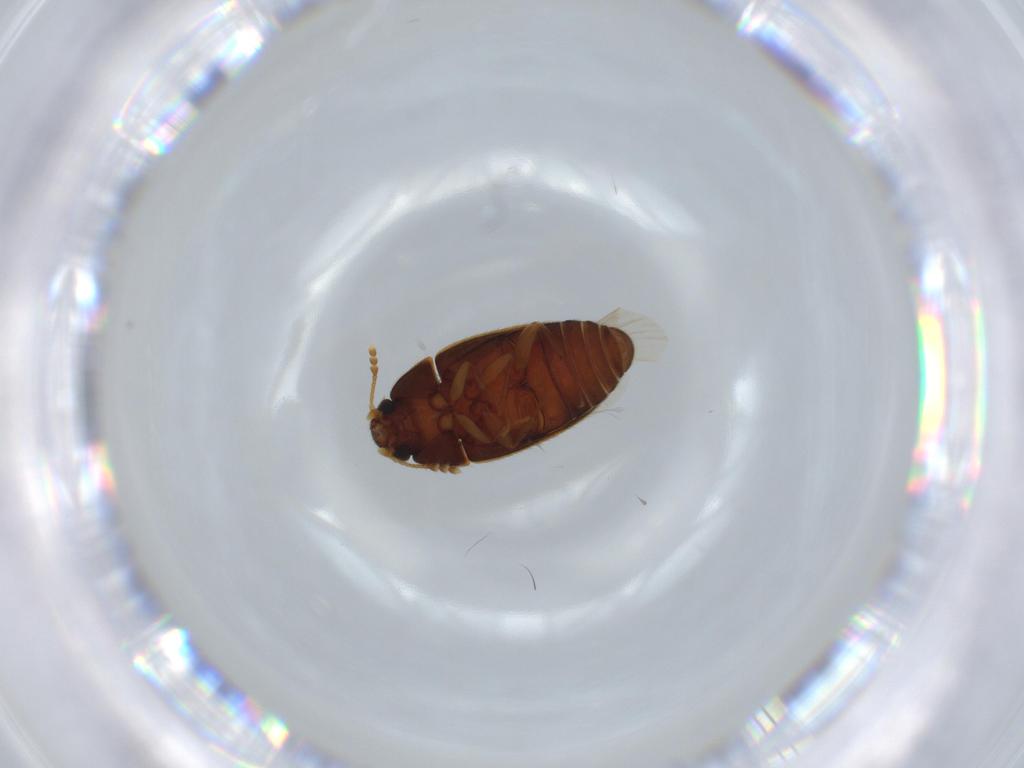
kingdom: Animalia
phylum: Arthropoda
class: Insecta
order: Coleoptera
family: Mycetophagidae
